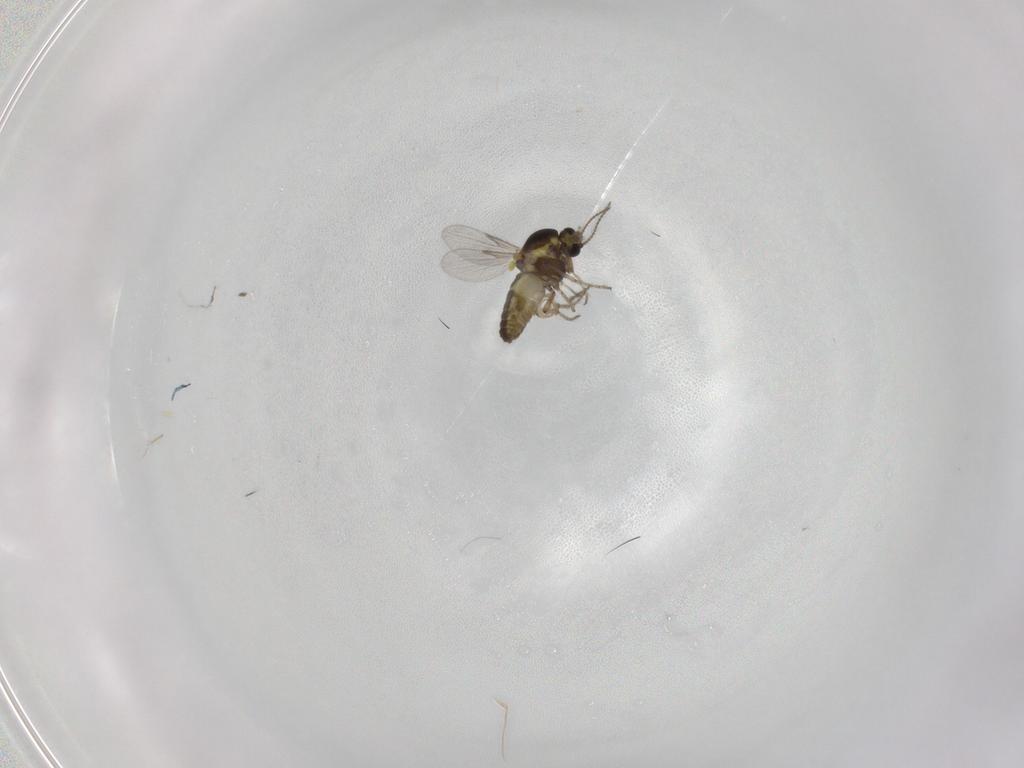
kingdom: Animalia
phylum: Arthropoda
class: Insecta
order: Diptera
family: Ceratopogonidae
